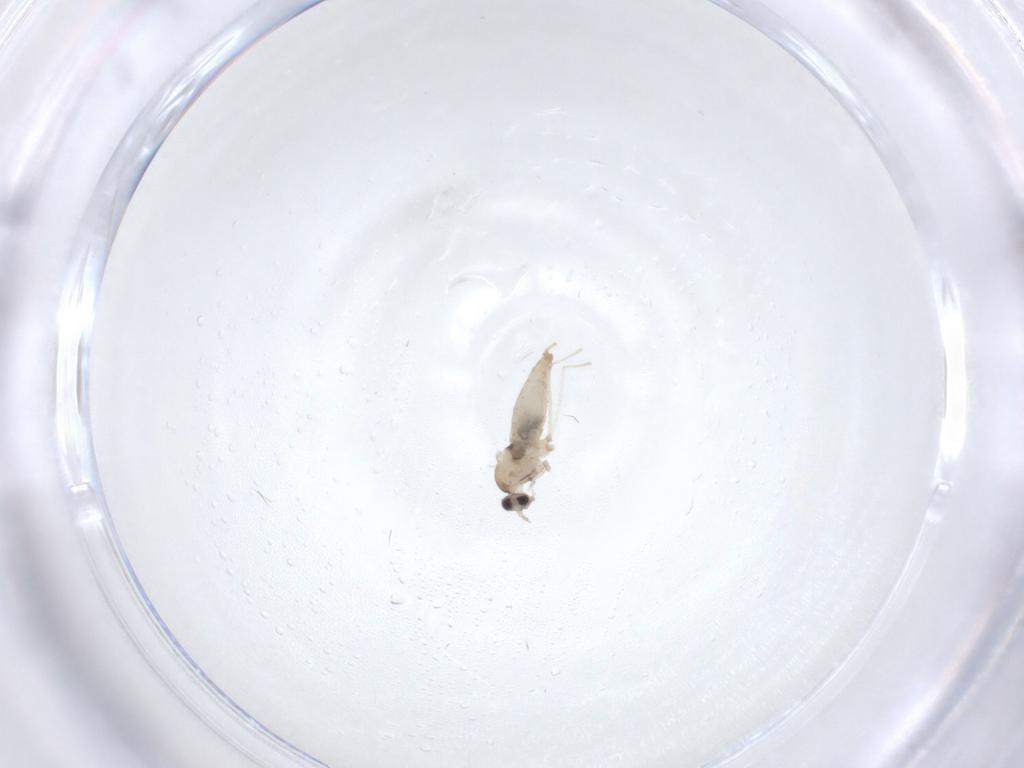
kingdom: Animalia
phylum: Arthropoda
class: Insecta
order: Diptera
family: Cecidomyiidae
